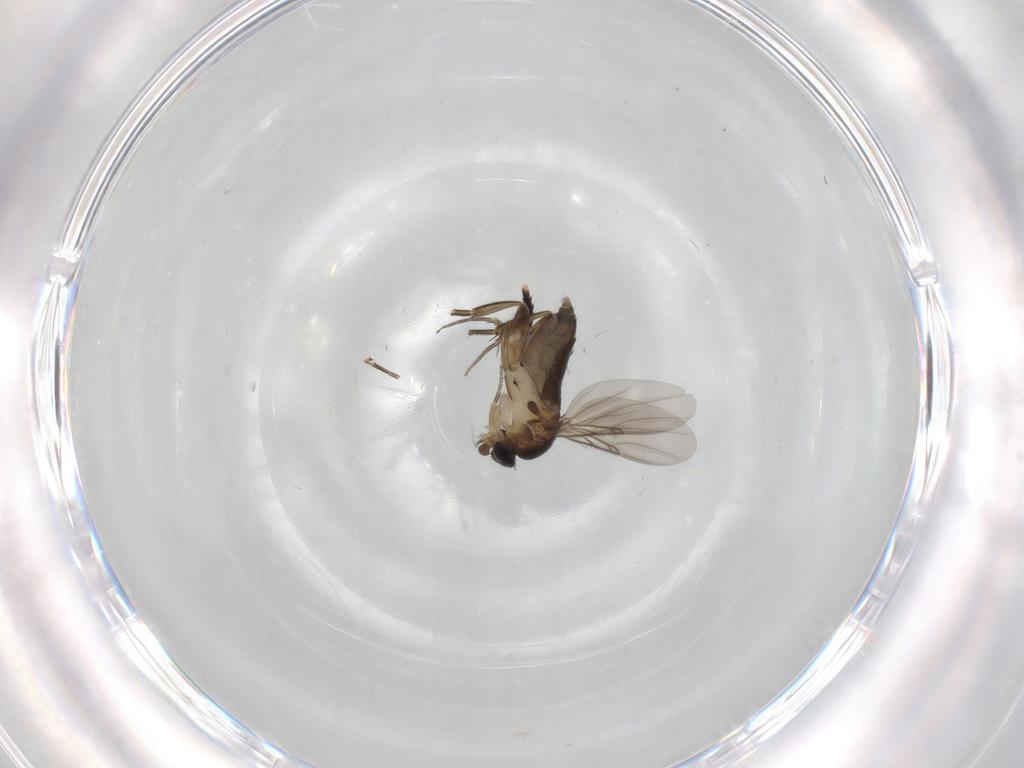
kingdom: Animalia
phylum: Arthropoda
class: Insecta
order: Diptera
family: Phoridae
